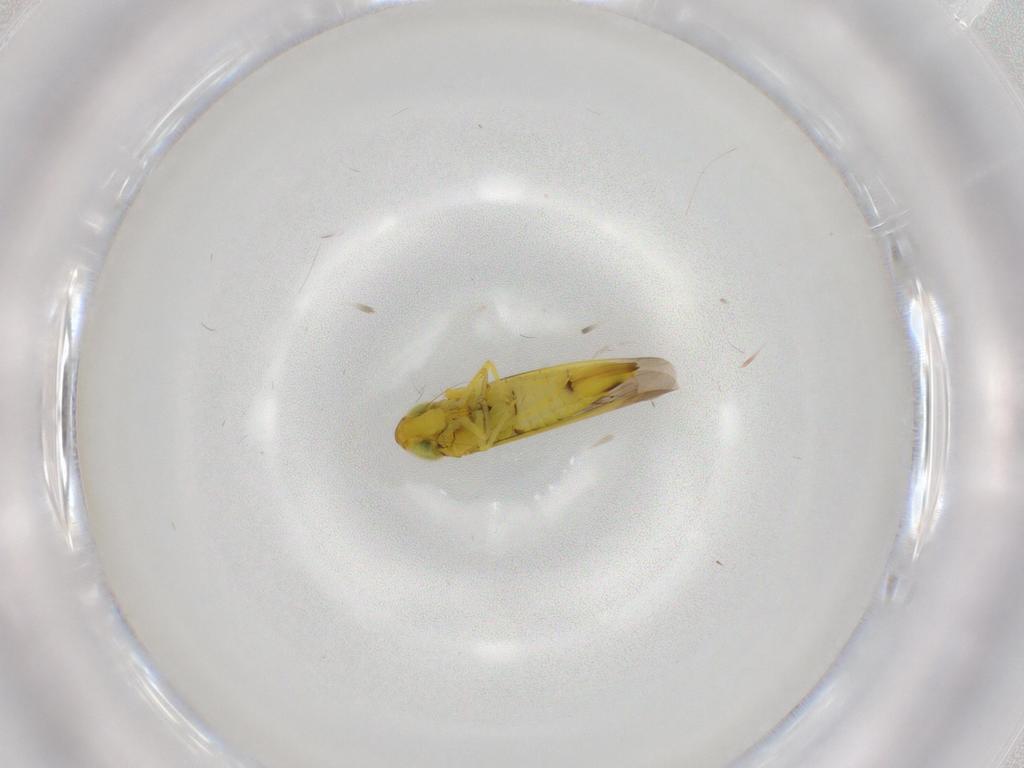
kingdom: Animalia
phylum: Arthropoda
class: Insecta
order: Hemiptera
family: Cicadellidae
